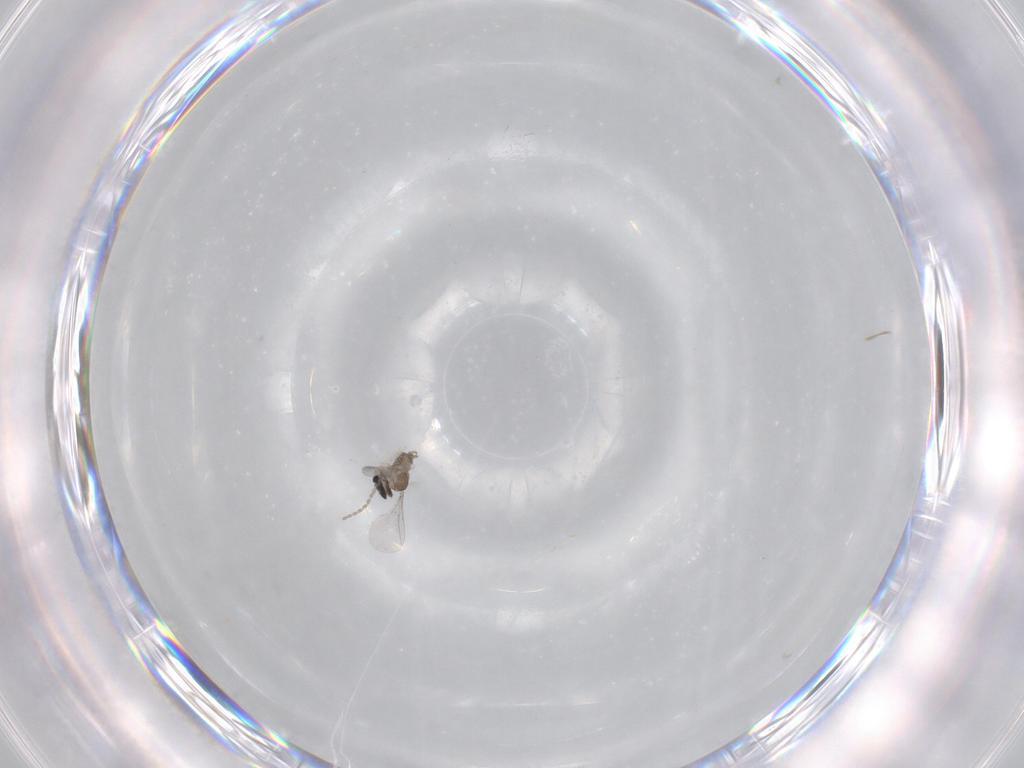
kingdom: Animalia
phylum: Arthropoda
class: Insecta
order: Diptera
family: Cecidomyiidae
